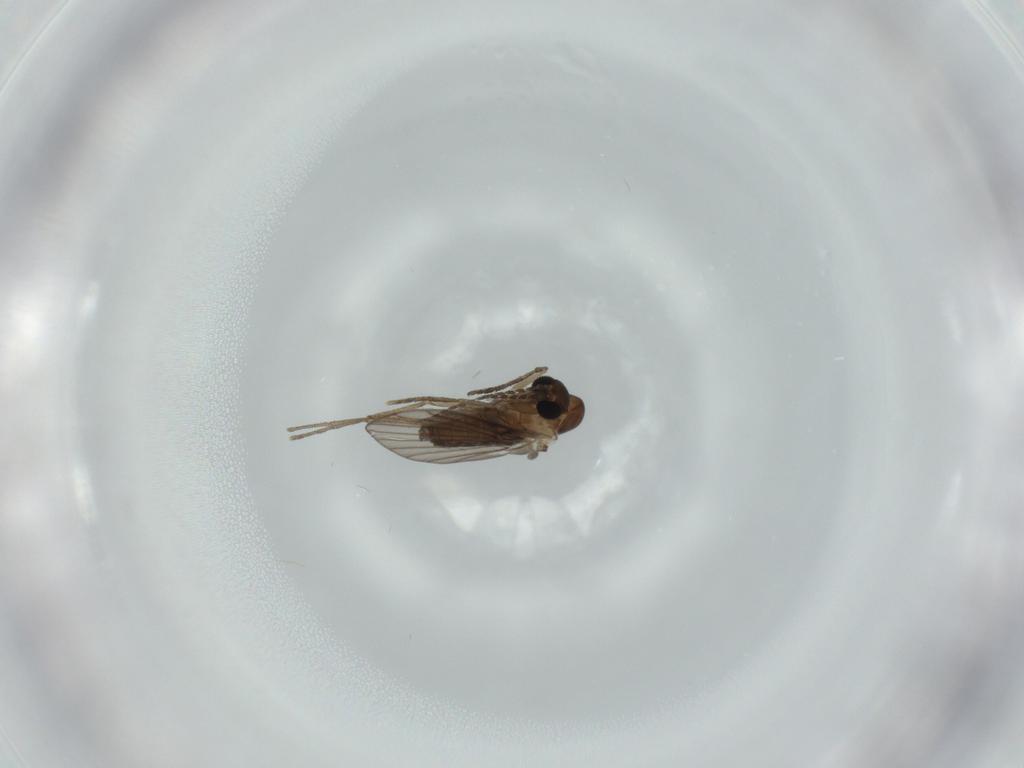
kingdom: Animalia
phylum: Arthropoda
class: Insecta
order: Diptera
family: Psychodidae
